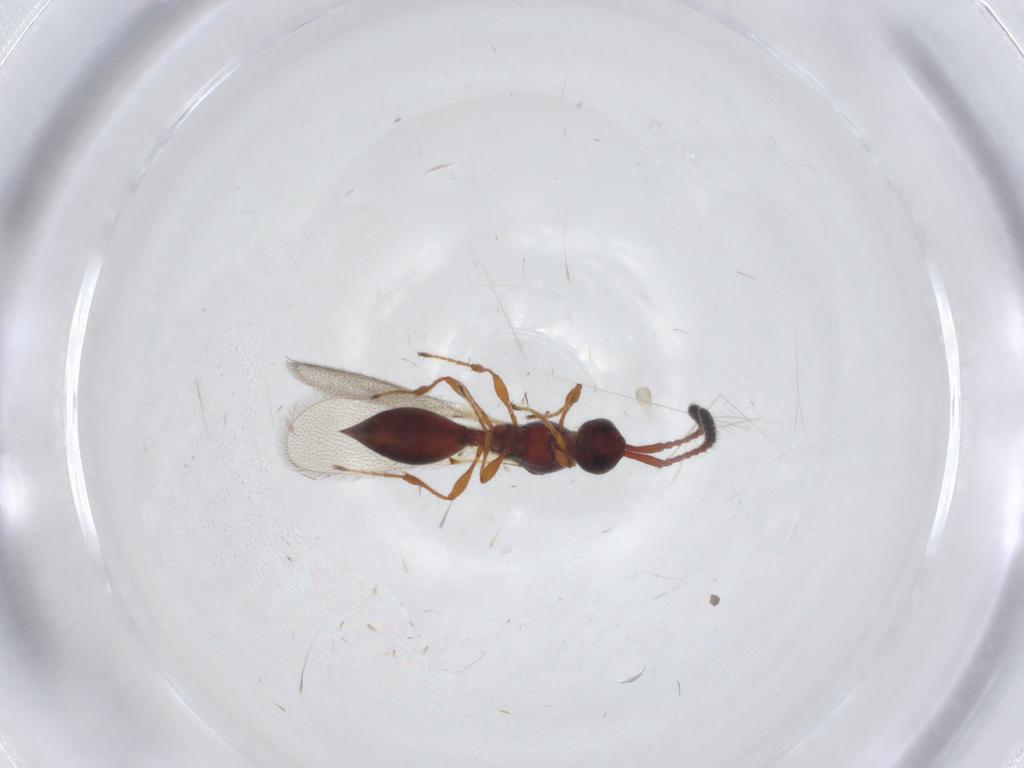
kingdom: Animalia
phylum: Arthropoda
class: Insecta
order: Hymenoptera
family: Diapriidae
